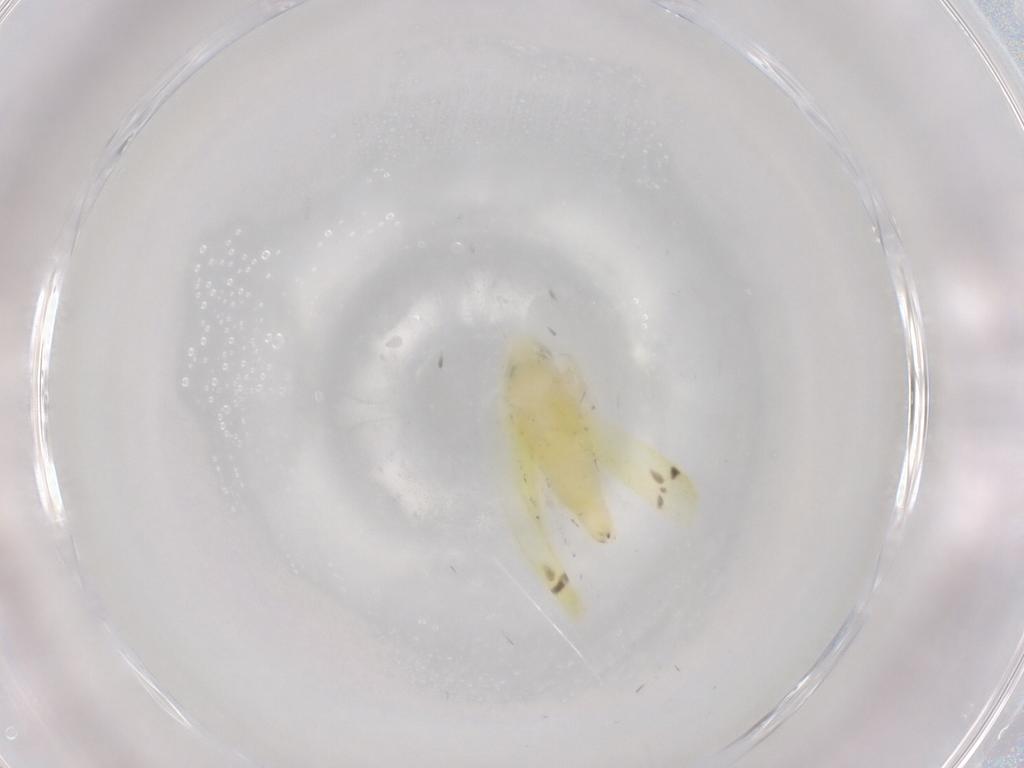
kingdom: Animalia
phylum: Arthropoda
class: Insecta
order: Hemiptera
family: Cicadellidae
